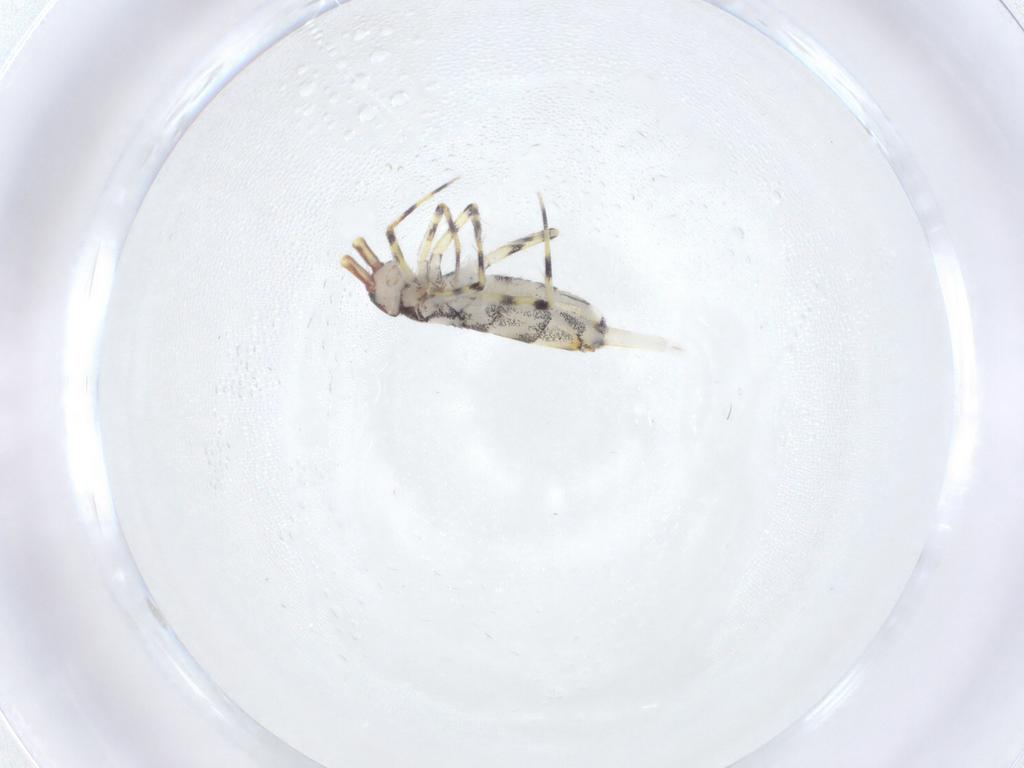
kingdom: Animalia
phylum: Arthropoda
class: Collembola
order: Entomobryomorpha
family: Entomobryidae
